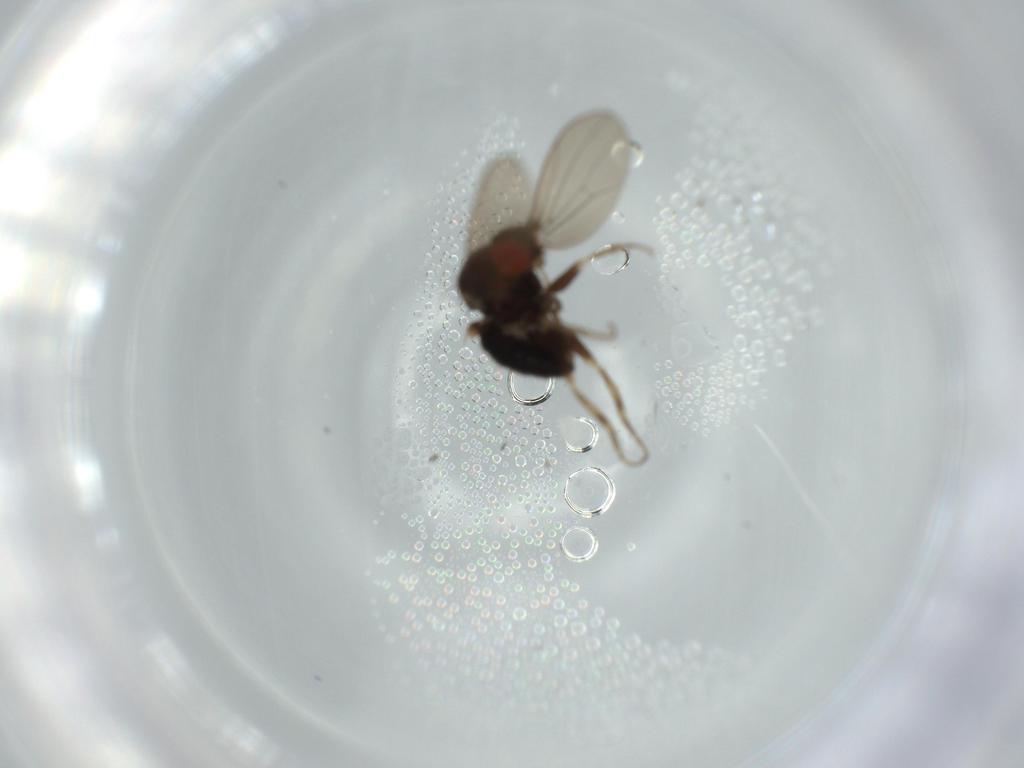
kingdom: Animalia
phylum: Arthropoda
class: Insecta
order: Diptera
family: Drosophilidae
